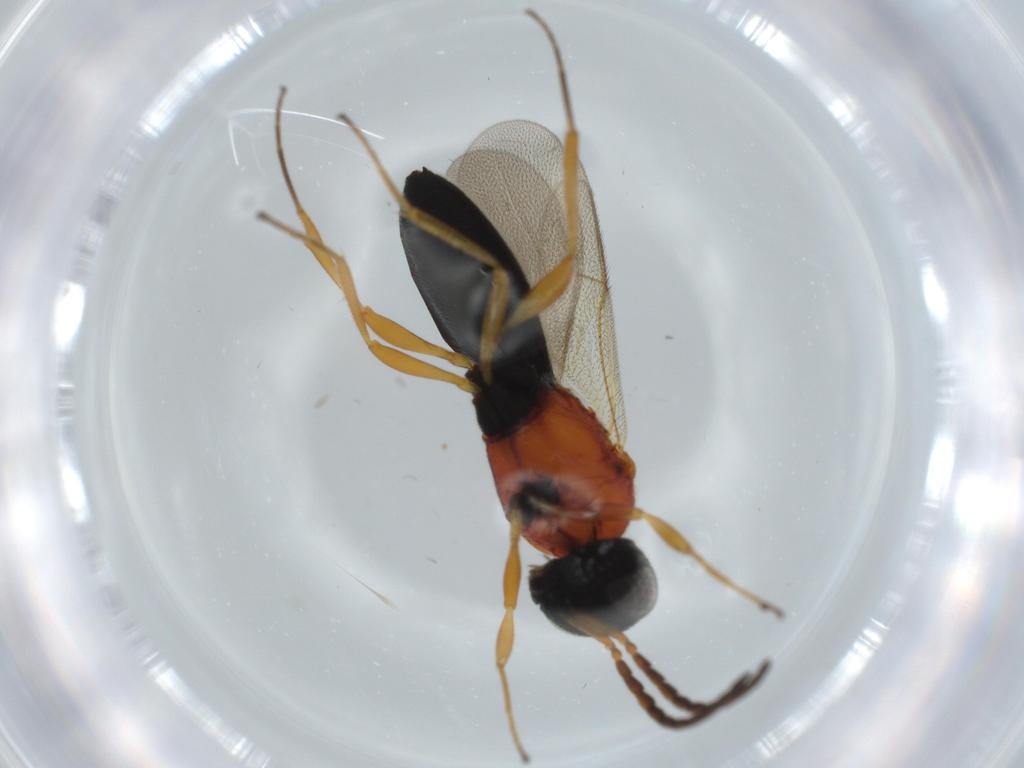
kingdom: Animalia
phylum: Arthropoda
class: Insecta
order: Hymenoptera
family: Scelionidae
